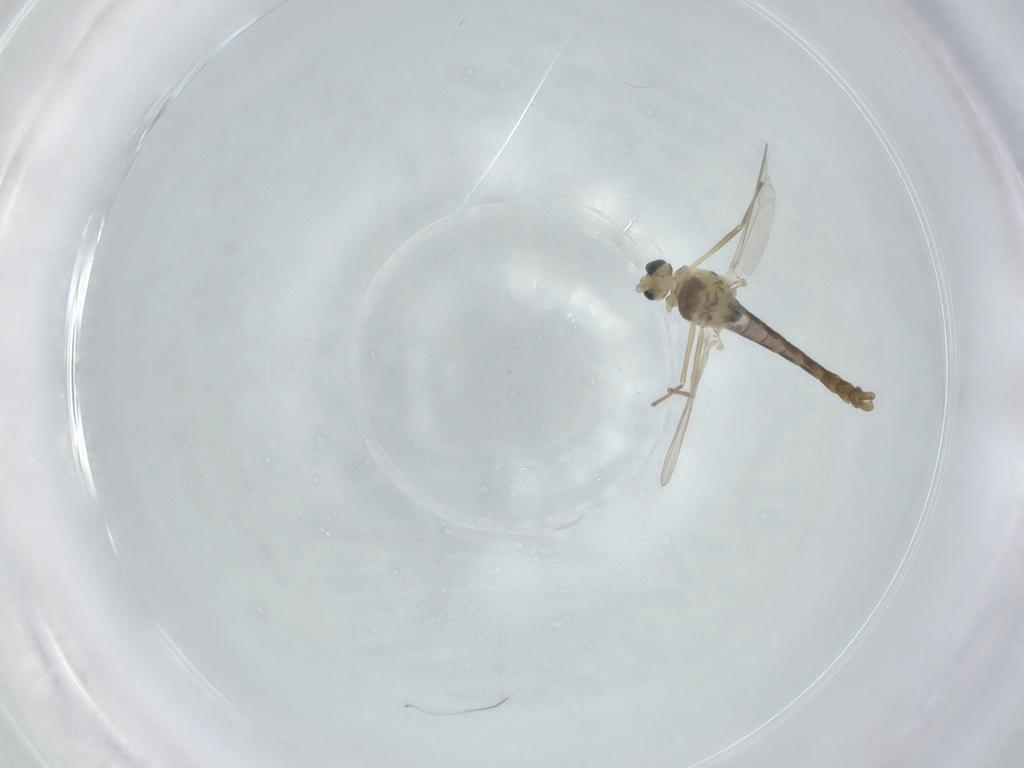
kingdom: Animalia
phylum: Arthropoda
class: Insecta
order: Diptera
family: Chironomidae
